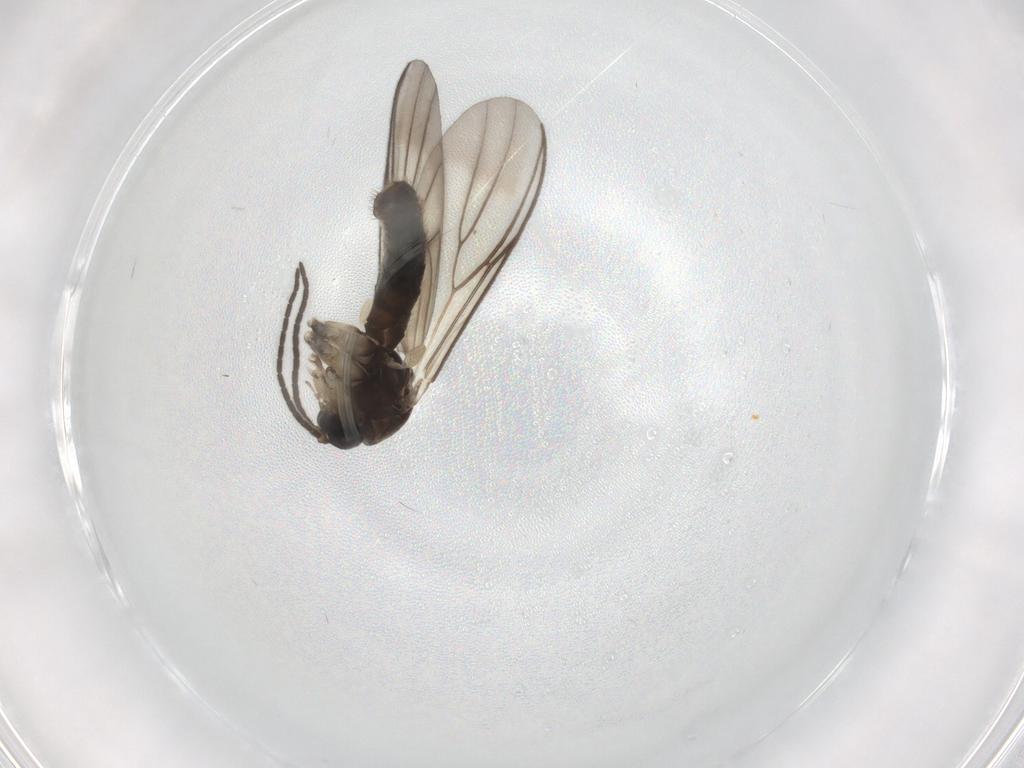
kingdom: Animalia
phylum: Arthropoda
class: Insecta
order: Diptera
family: Mycetophilidae
